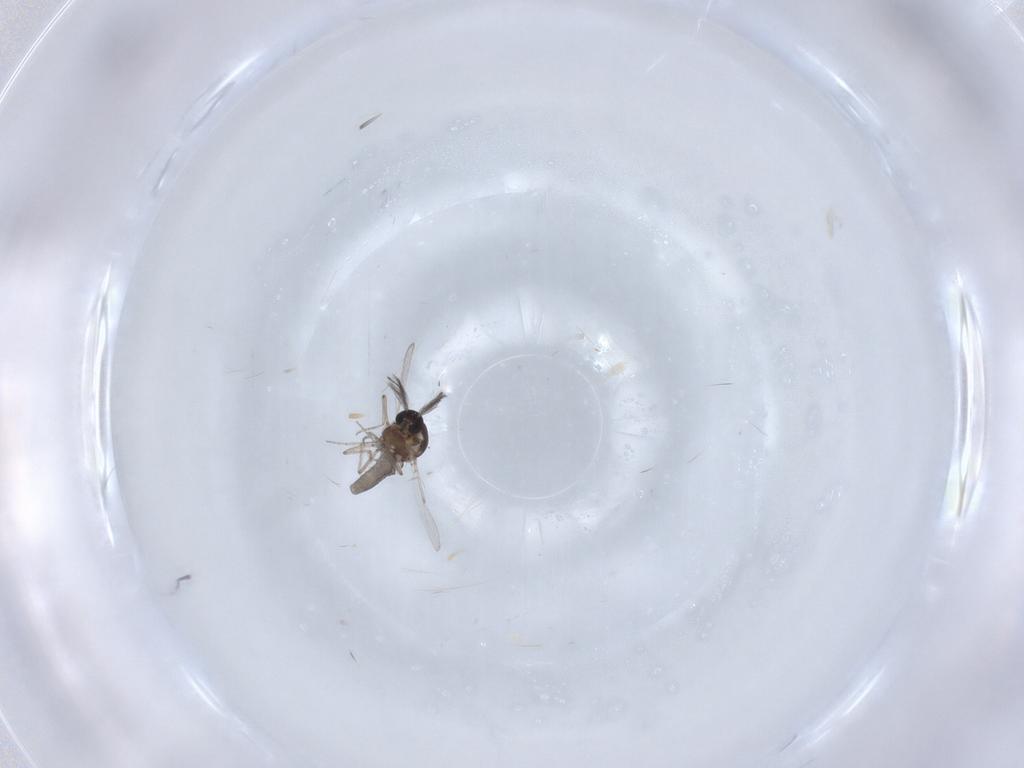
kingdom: Animalia
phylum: Arthropoda
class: Insecta
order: Diptera
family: Ceratopogonidae
